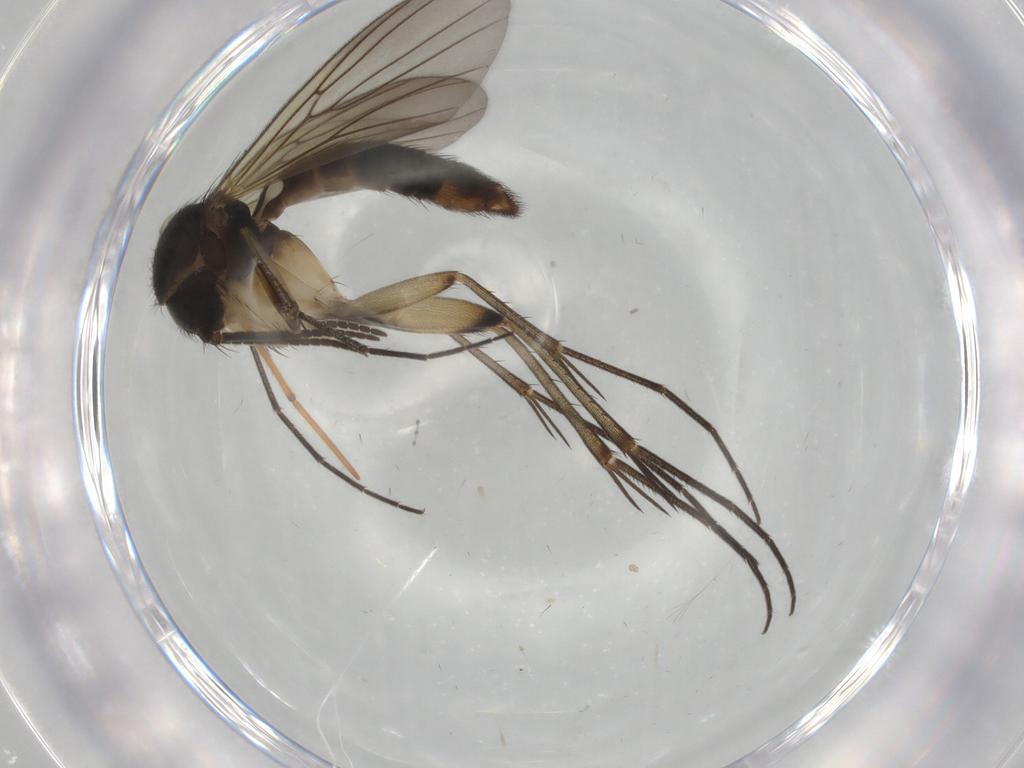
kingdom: Animalia
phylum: Arthropoda
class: Insecta
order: Diptera
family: Mycetophilidae
